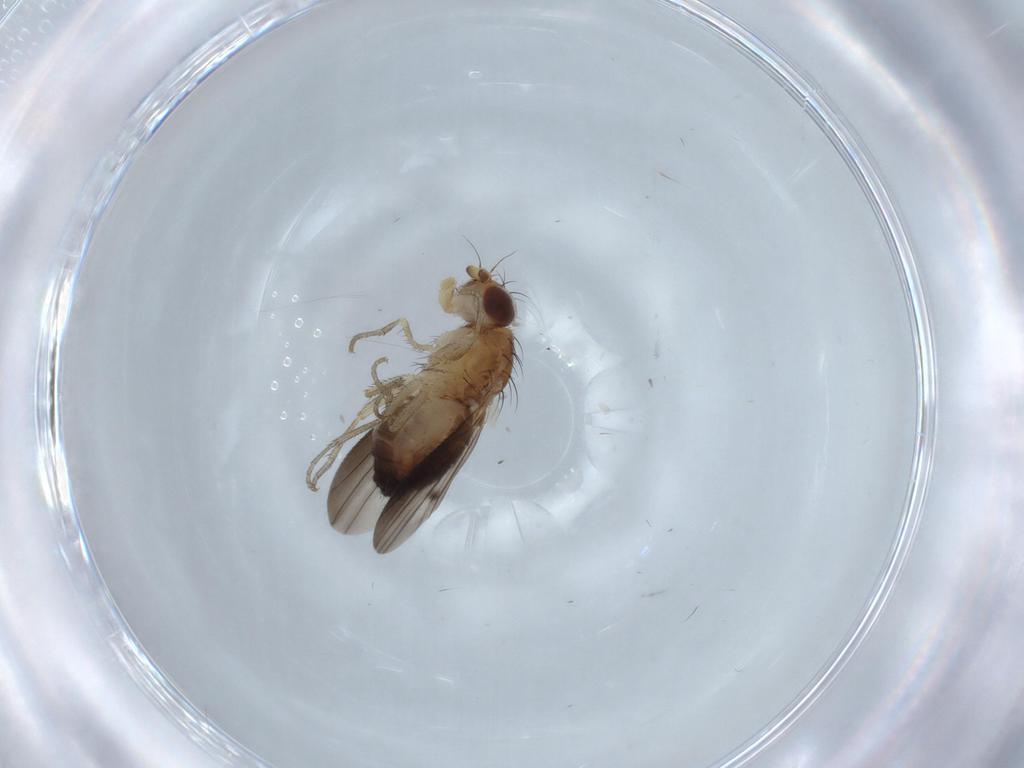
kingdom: Animalia
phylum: Arthropoda
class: Insecta
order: Diptera
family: Heleomyzidae
